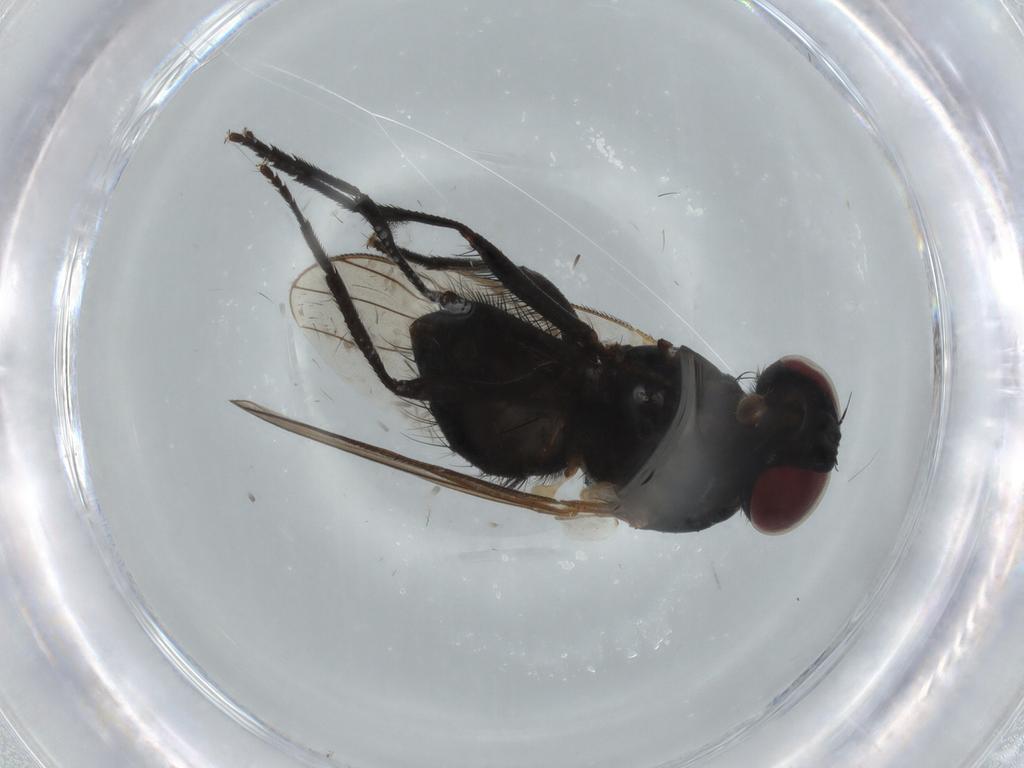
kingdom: Animalia
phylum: Arthropoda
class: Insecta
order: Diptera
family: Fannia
